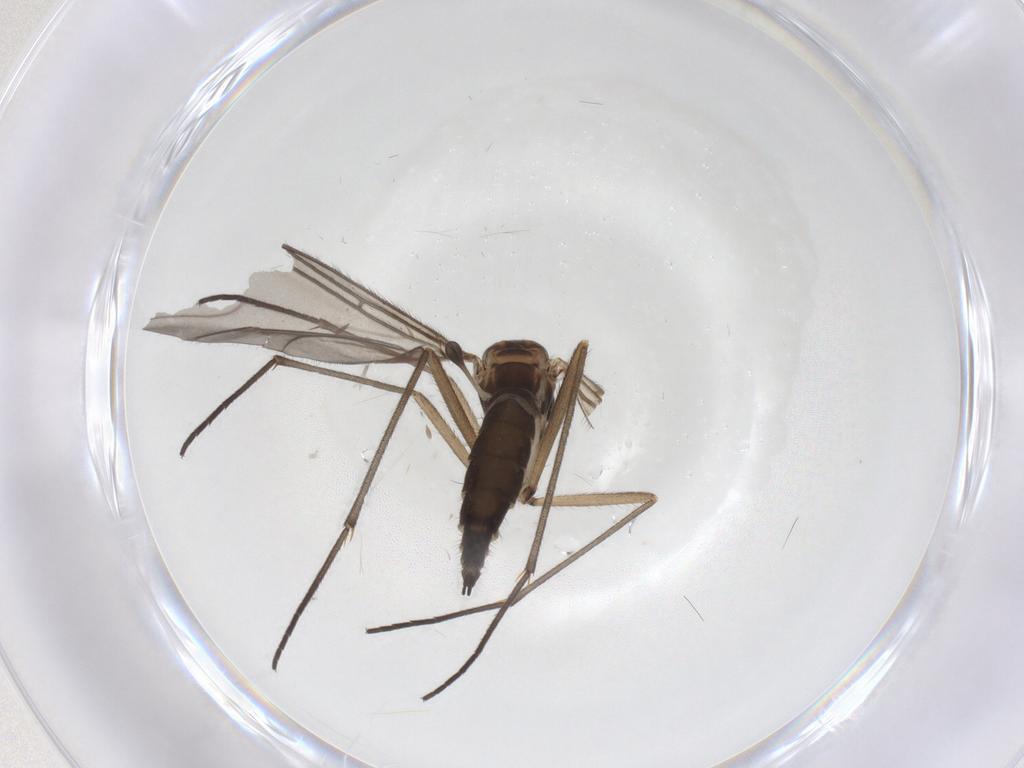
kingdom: Animalia
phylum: Arthropoda
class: Insecta
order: Diptera
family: Sciaridae
